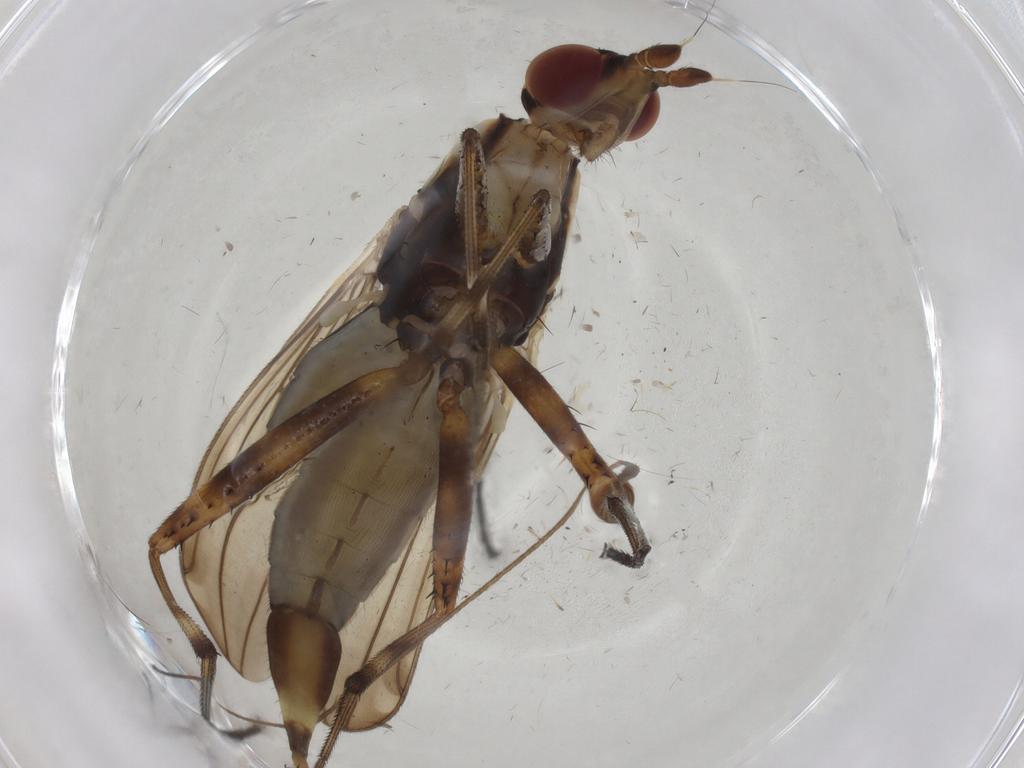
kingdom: Animalia
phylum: Arthropoda
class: Insecta
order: Diptera
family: Neriidae
